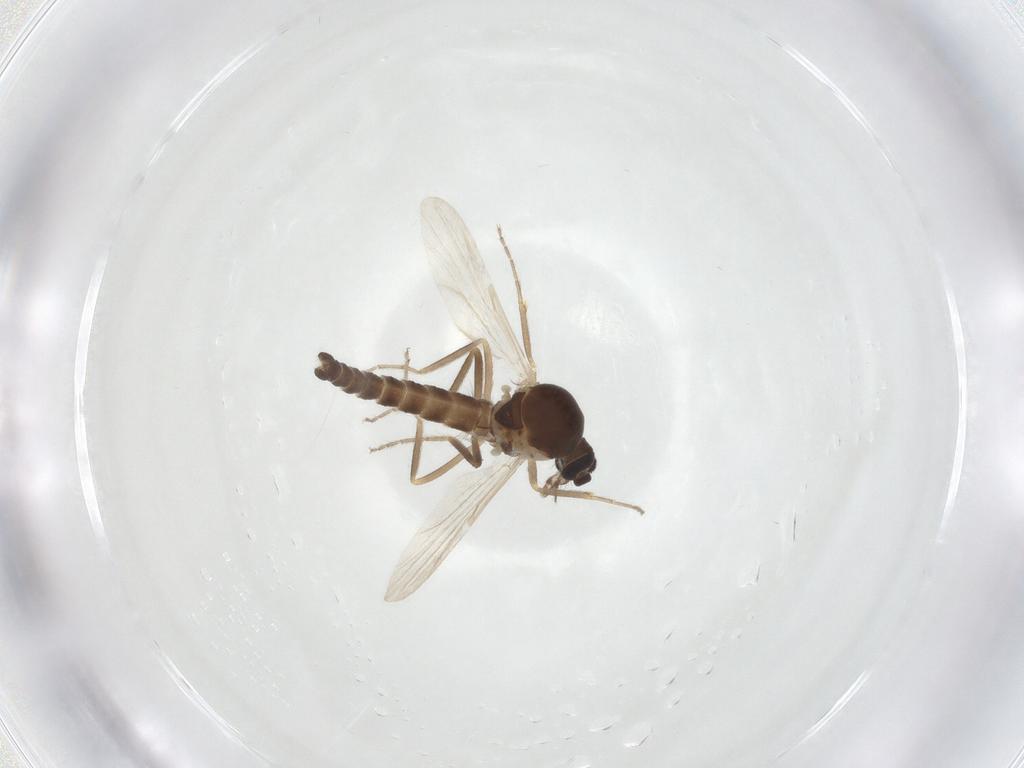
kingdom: Animalia
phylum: Arthropoda
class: Insecta
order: Diptera
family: Ceratopogonidae
